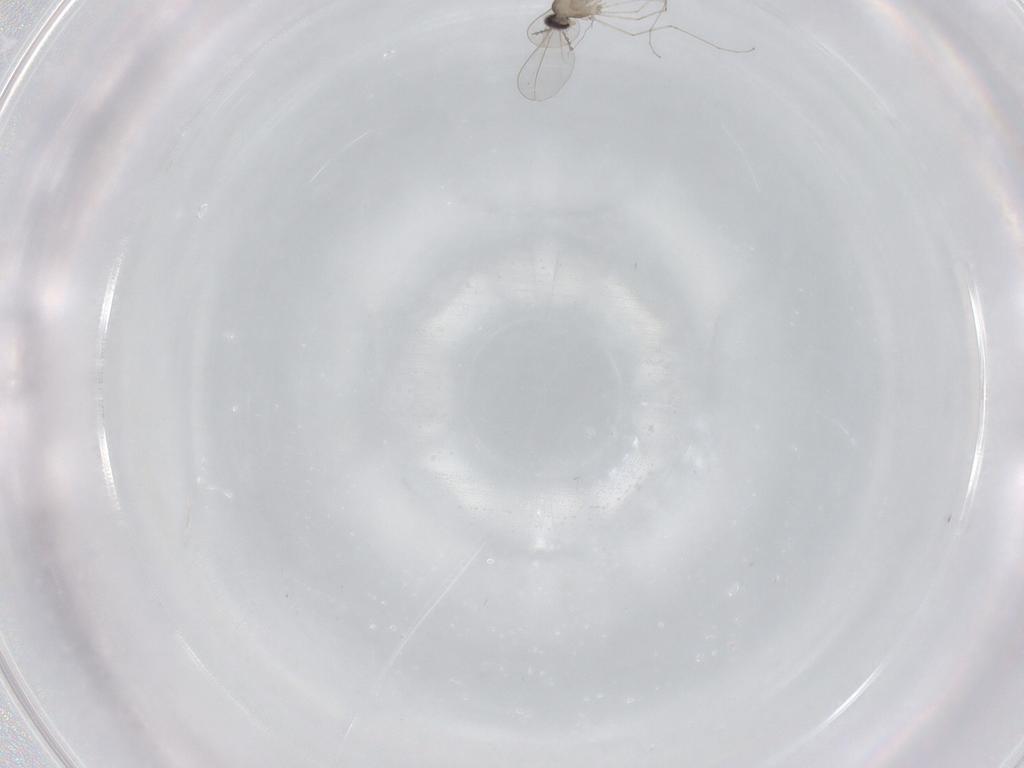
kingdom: Animalia
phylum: Arthropoda
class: Insecta
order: Diptera
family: Cecidomyiidae
